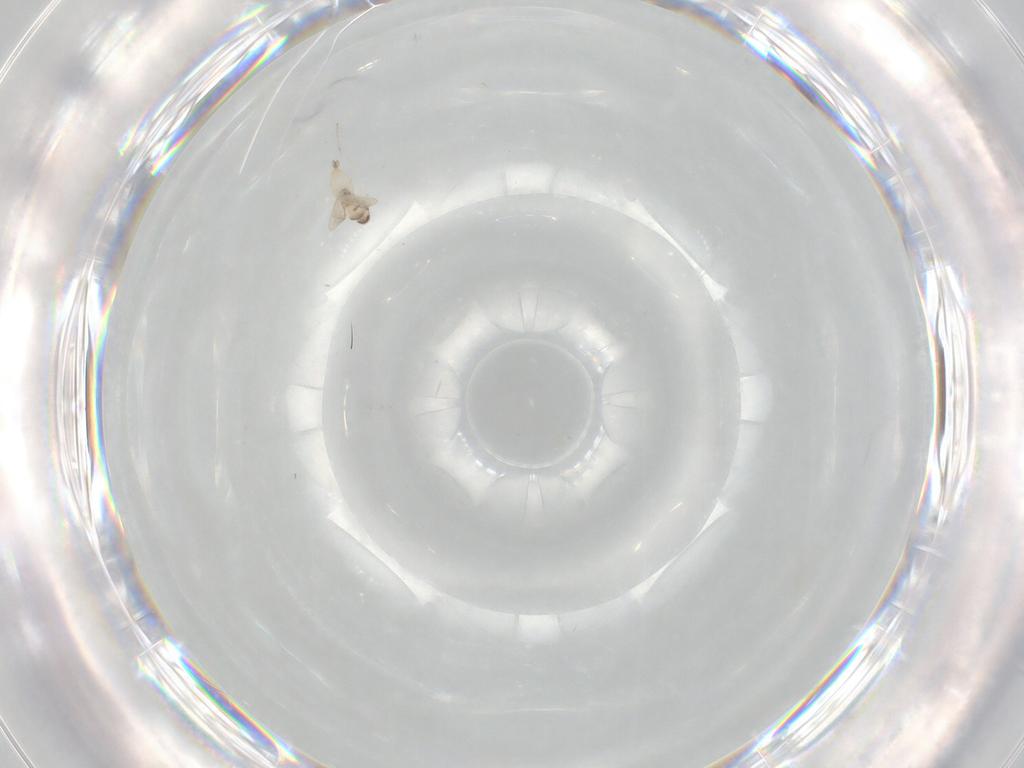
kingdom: Animalia
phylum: Arthropoda
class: Insecta
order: Diptera
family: Cecidomyiidae
